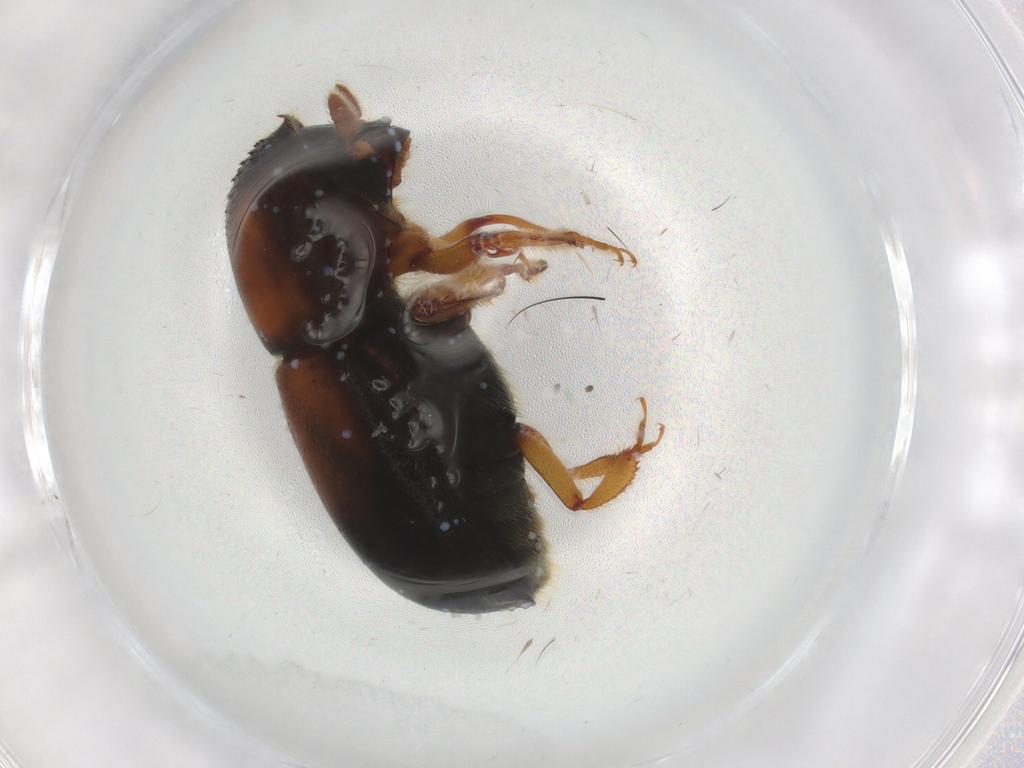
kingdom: Animalia
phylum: Arthropoda
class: Insecta
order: Coleoptera
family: Curculionidae
